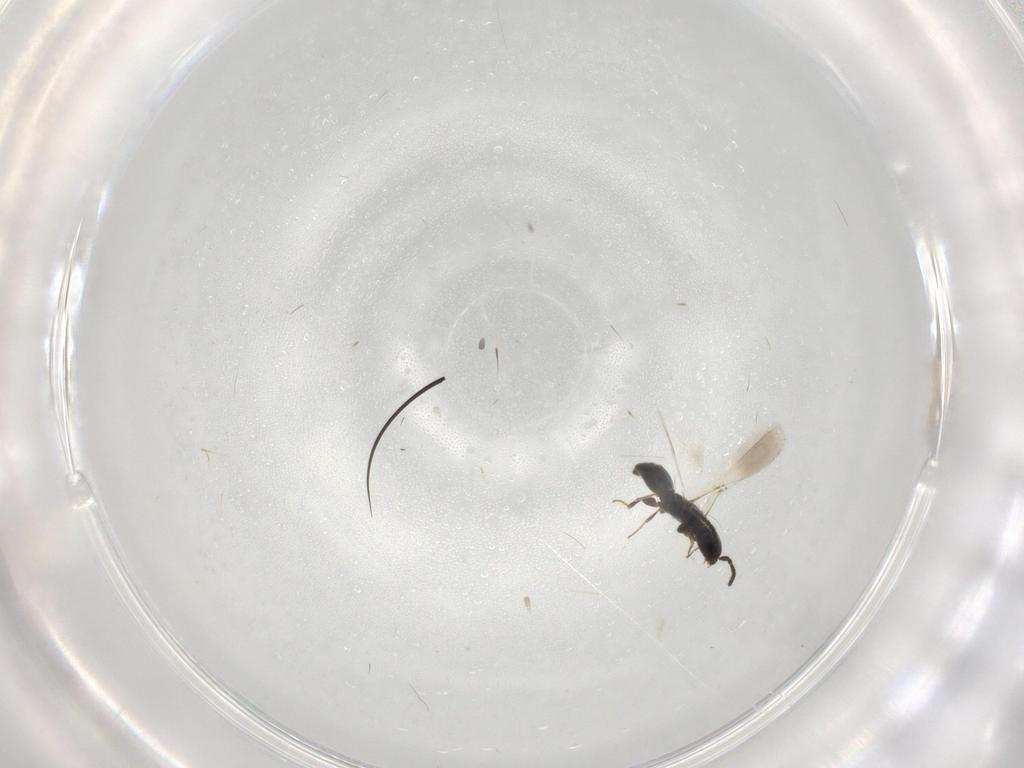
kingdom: Animalia
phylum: Arthropoda
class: Insecta
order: Hymenoptera
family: Bethylidae
